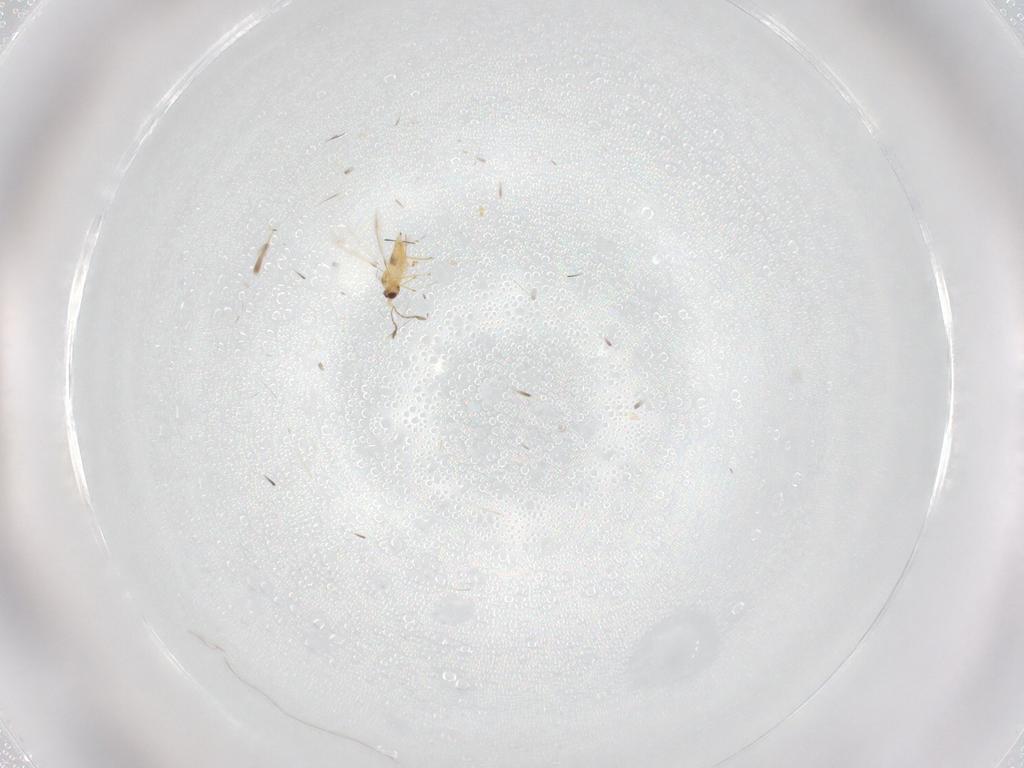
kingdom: Animalia
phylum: Arthropoda
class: Insecta
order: Hymenoptera
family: Mymaridae
